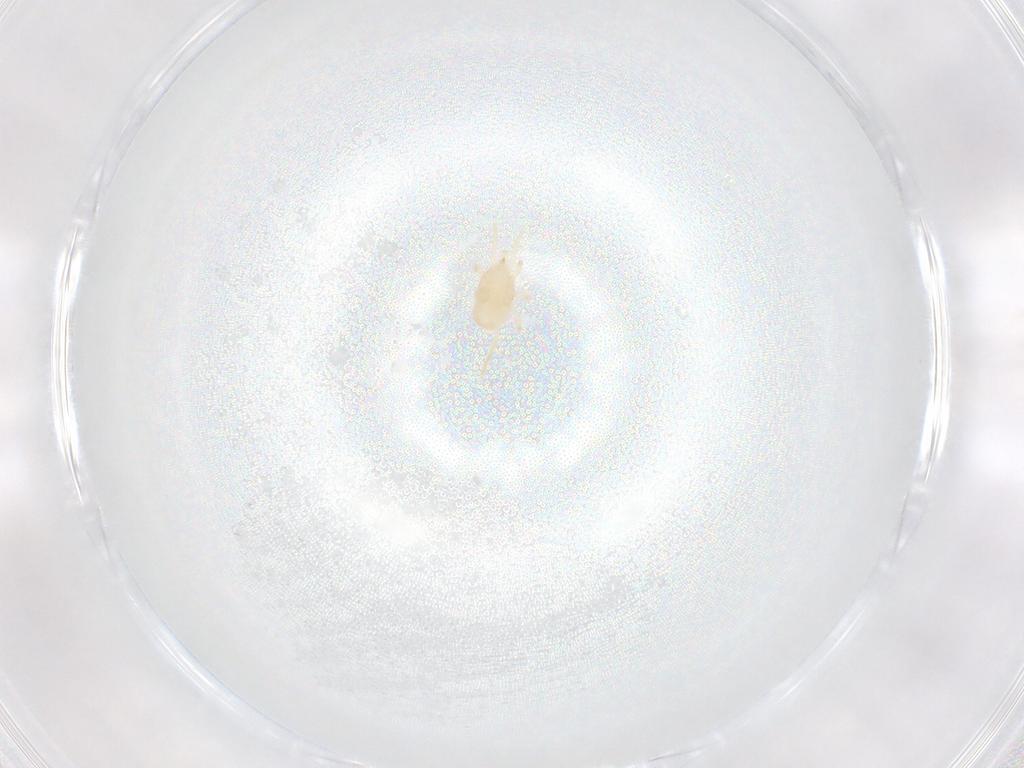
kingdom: Animalia
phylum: Arthropoda
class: Arachnida
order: Mesostigmata
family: Melicharidae
